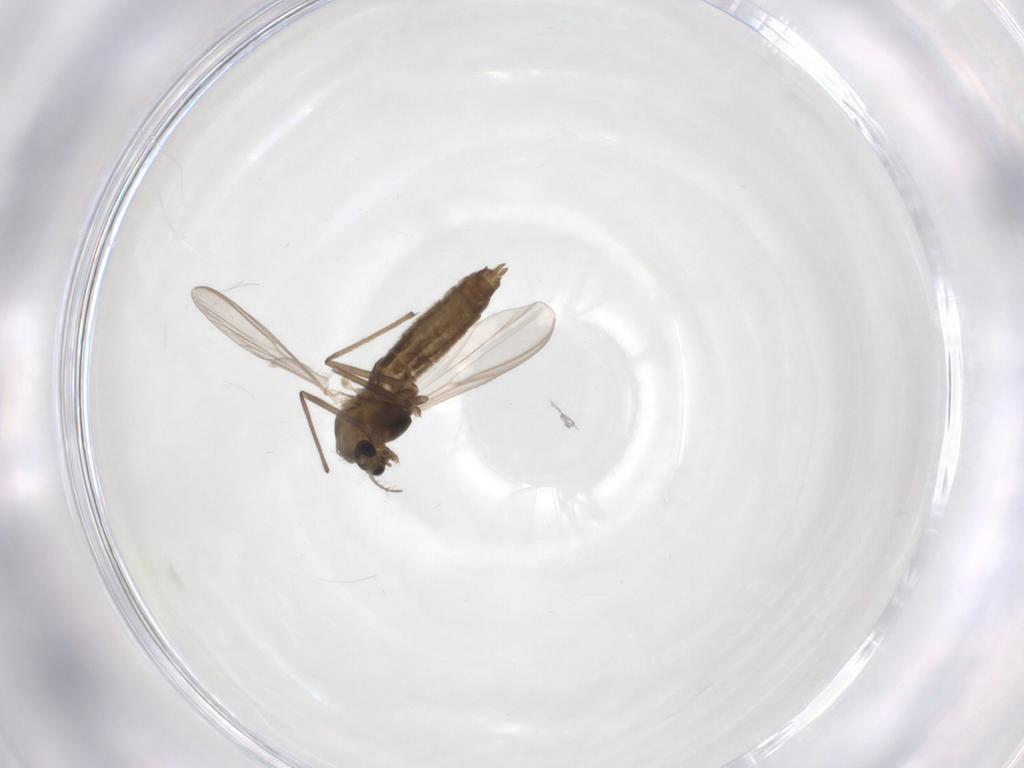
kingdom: Animalia
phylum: Arthropoda
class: Insecta
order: Diptera
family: Chironomidae
